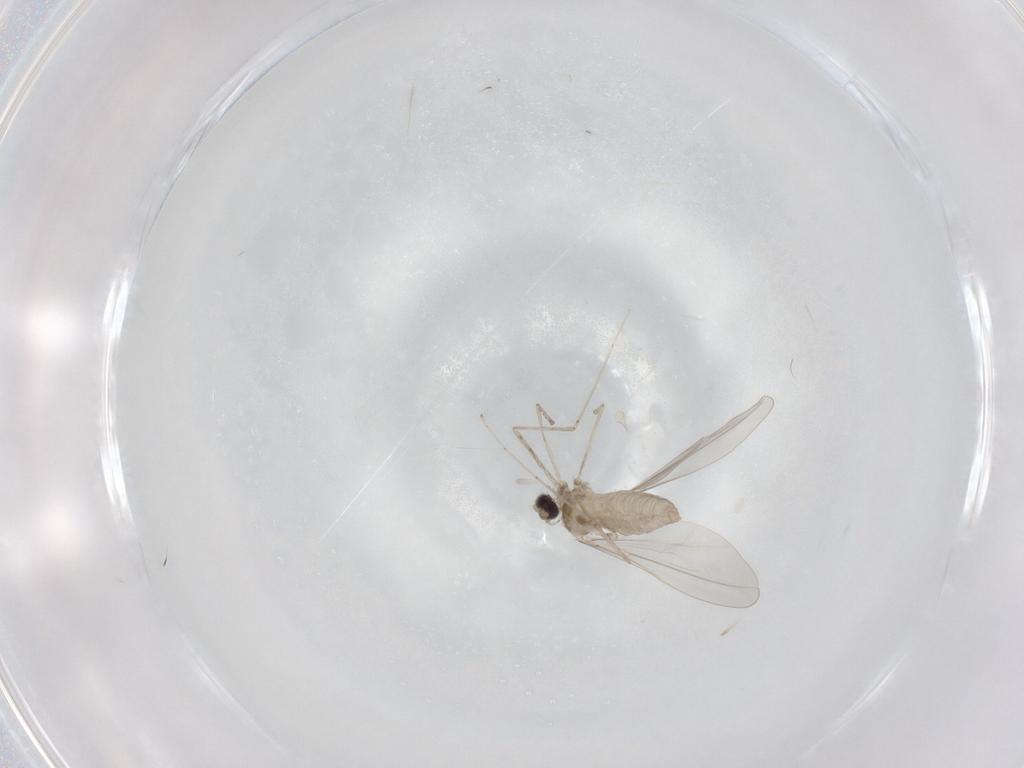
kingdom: Animalia
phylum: Arthropoda
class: Insecta
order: Diptera
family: Cecidomyiidae
